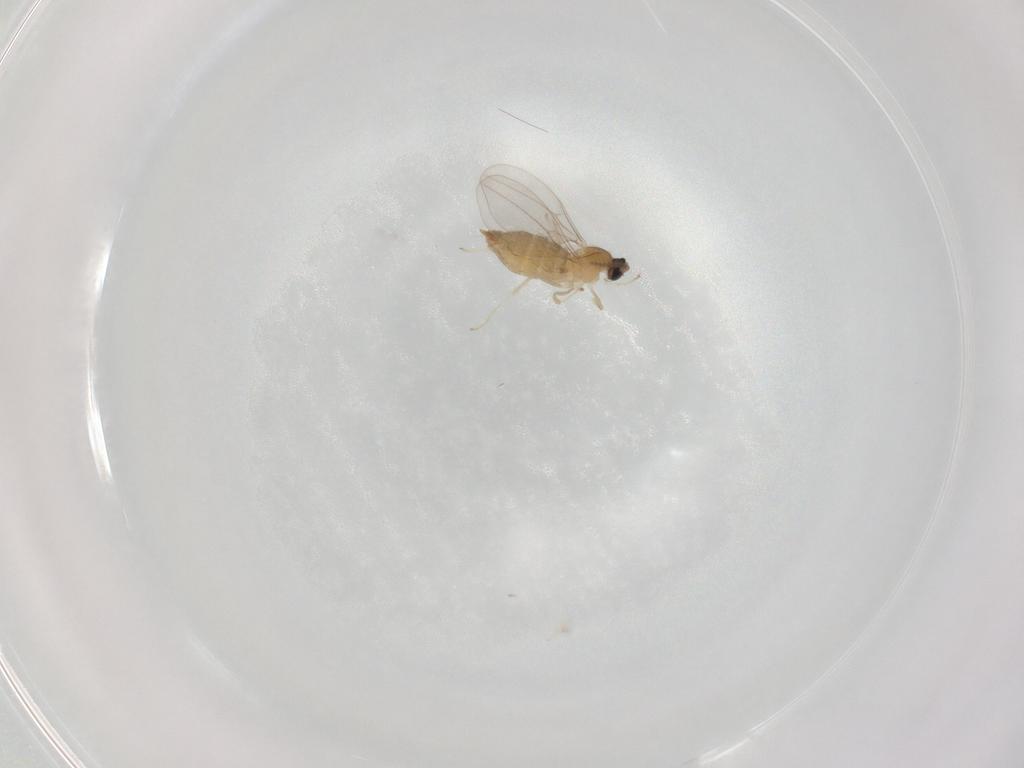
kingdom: Animalia
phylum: Arthropoda
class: Insecta
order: Diptera
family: Cecidomyiidae
